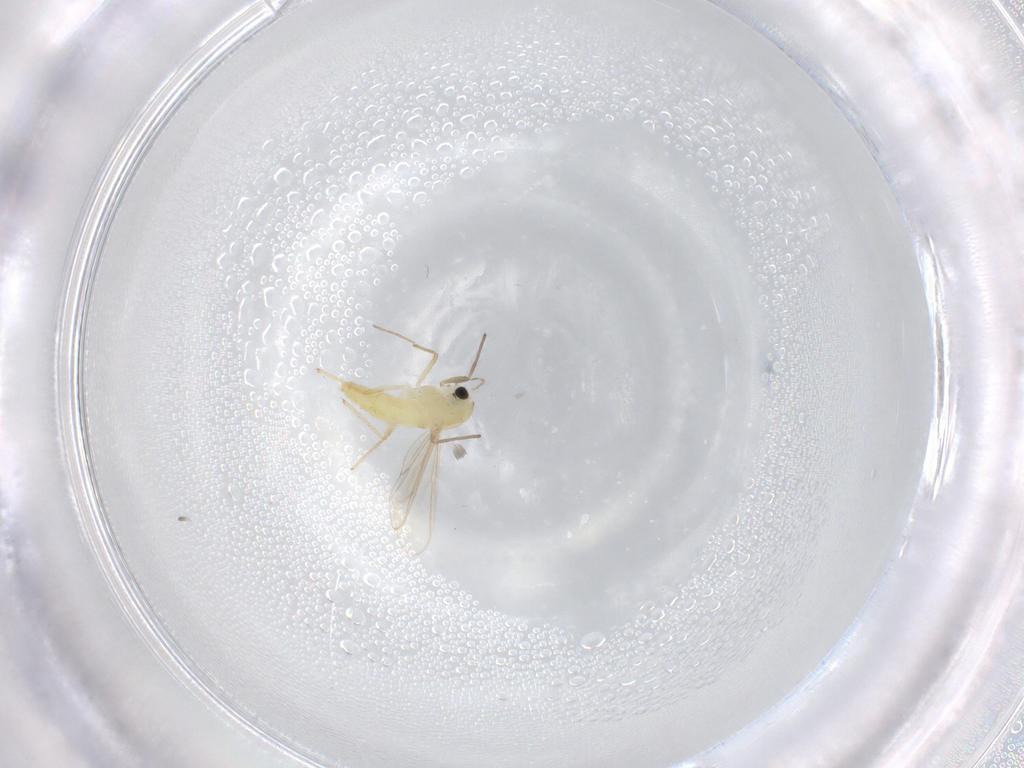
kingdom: Animalia
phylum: Arthropoda
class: Insecta
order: Diptera
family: Chironomidae
